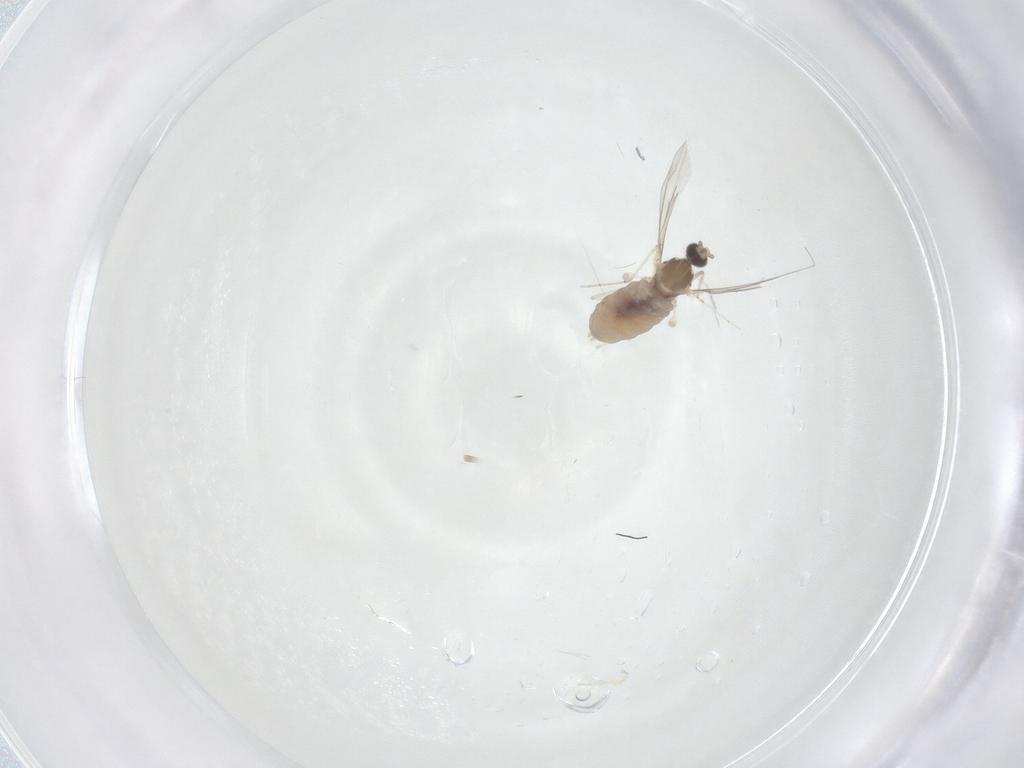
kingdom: Animalia
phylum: Arthropoda
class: Insecta
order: Diptera
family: Cecidomyiidae
